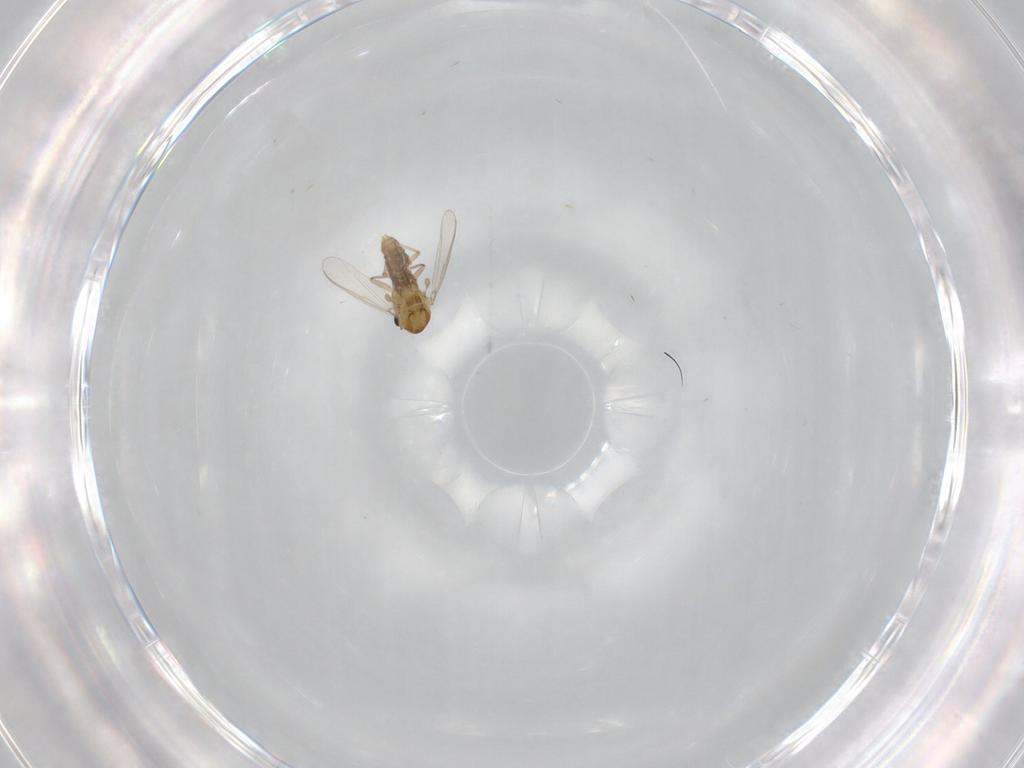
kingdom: Animalia
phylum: Arthropoda
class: Insecta
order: Diptera
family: Chironomidae
